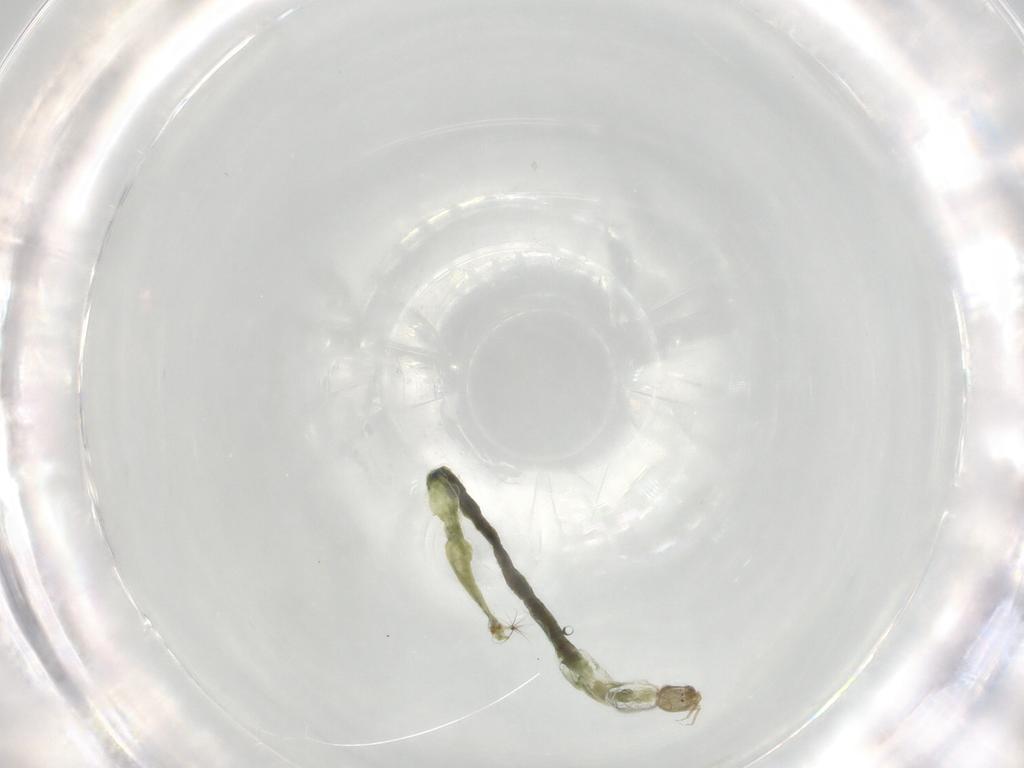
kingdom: Animalia
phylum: Arthropoda
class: Insecta
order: Diptera
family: Chironomidae
